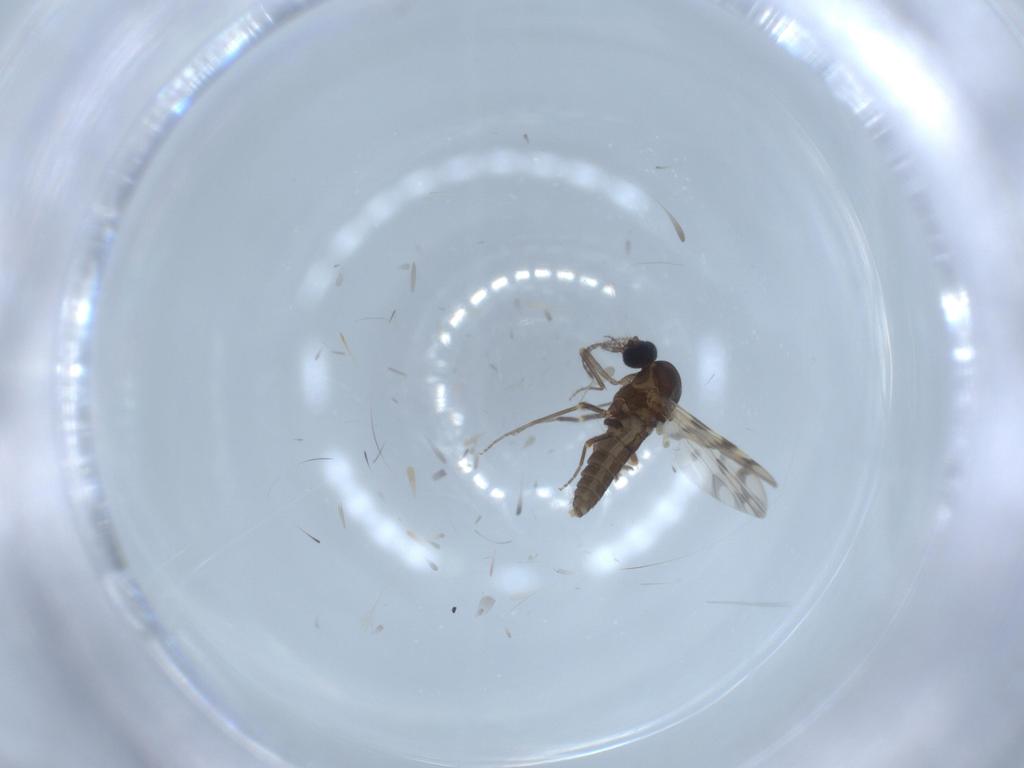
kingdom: Animalia
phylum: Arthropoda
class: Insecta
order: Diptera
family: Ceratopogonidae
